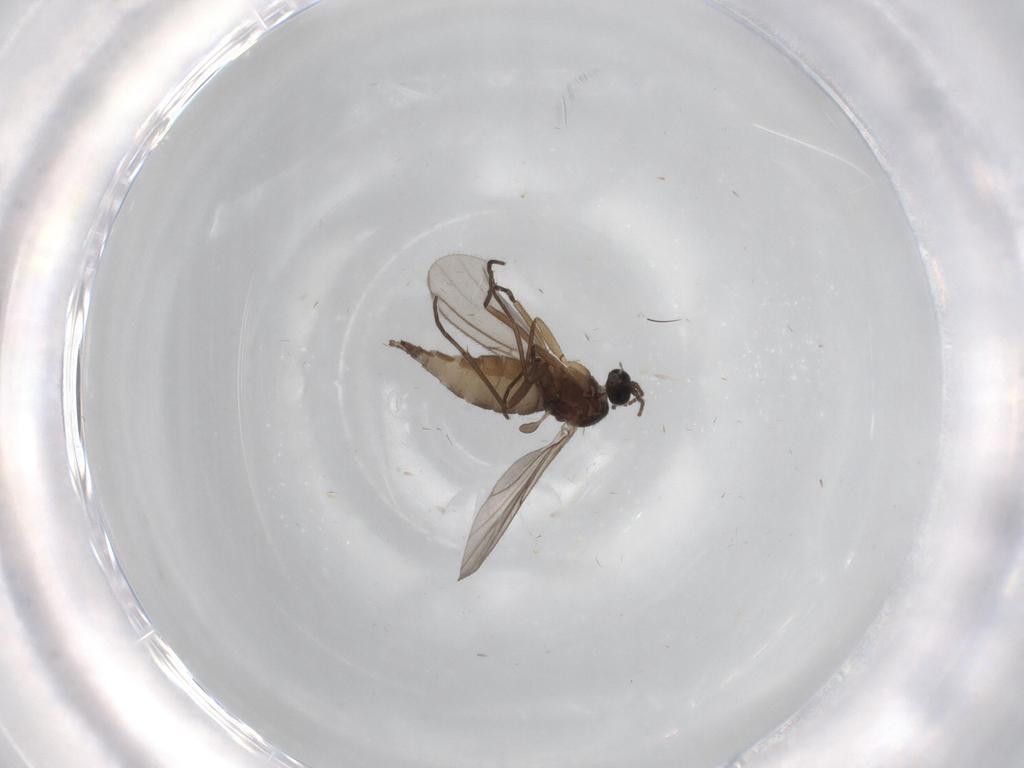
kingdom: Animalia
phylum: Arthropoda
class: Insecta
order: Diptera
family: Sciaridae
